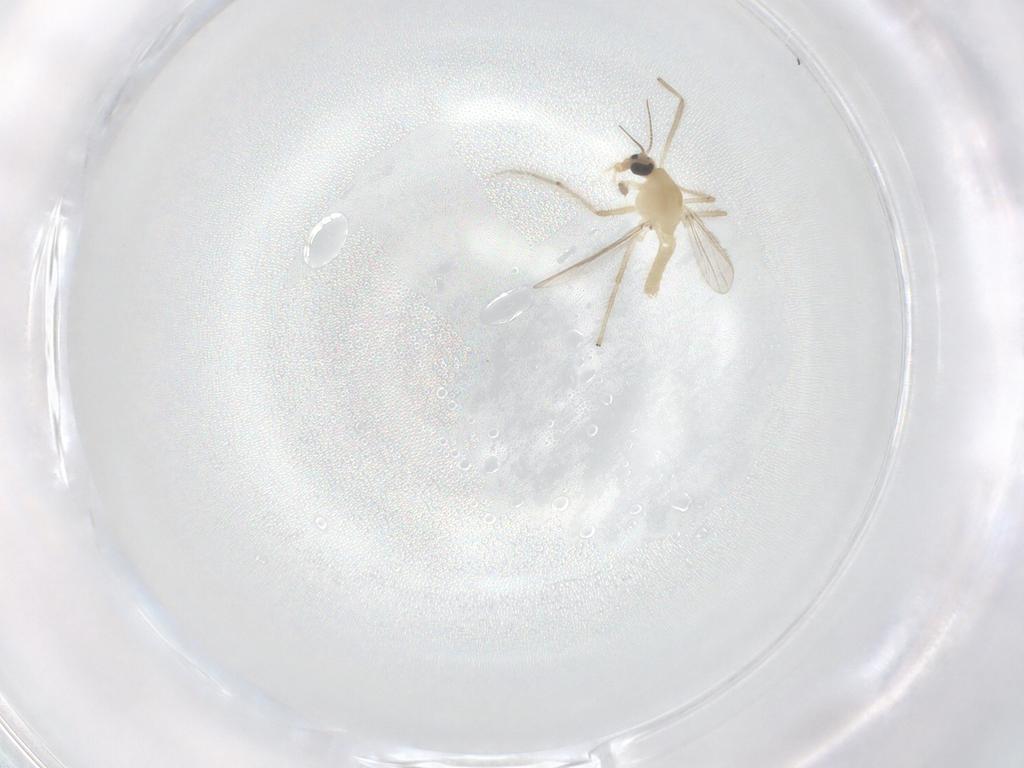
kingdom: Animalia
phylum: Arthropoda
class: Insecta
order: Diptera
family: Chironomidae
